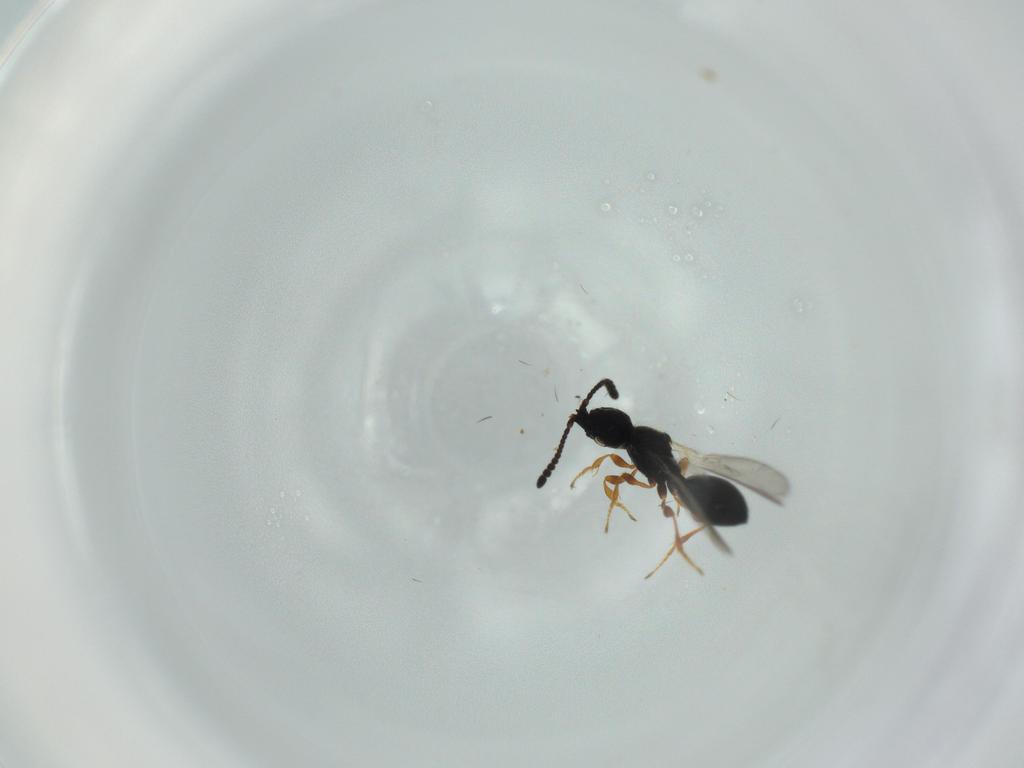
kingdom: Animalia
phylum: Arthropoda
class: Insecta
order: Hymenoptera
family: Diapriidae
